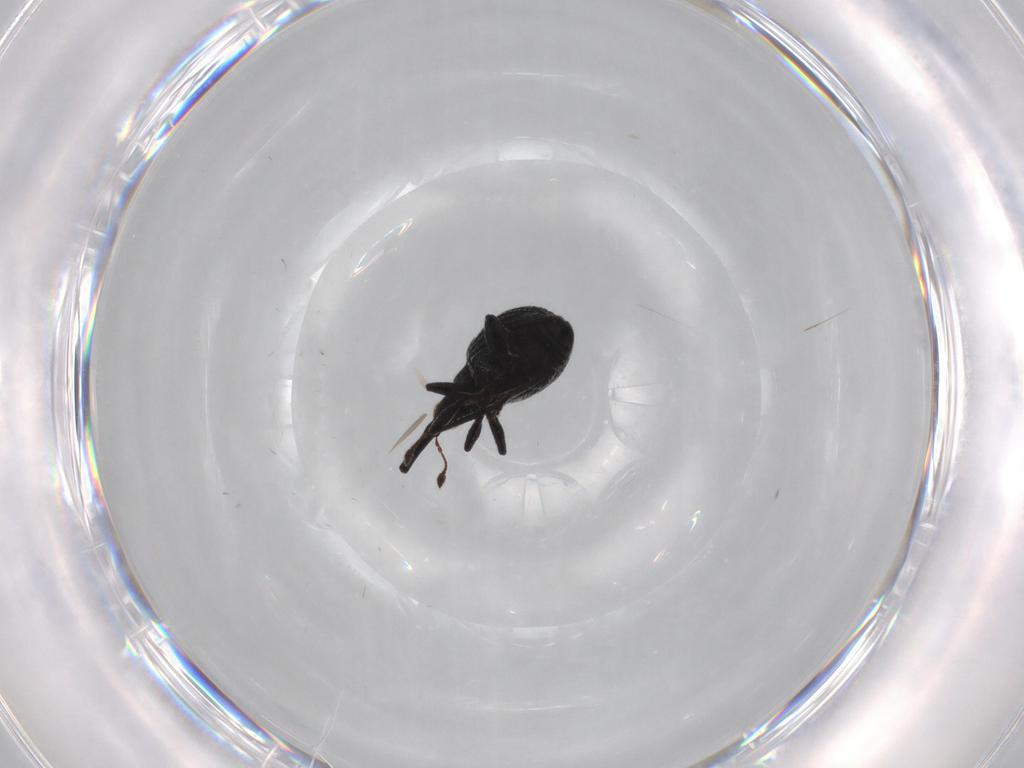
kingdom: Animalia
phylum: Arthropoda
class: Insecta
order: Coleoptera
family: Brentidae
